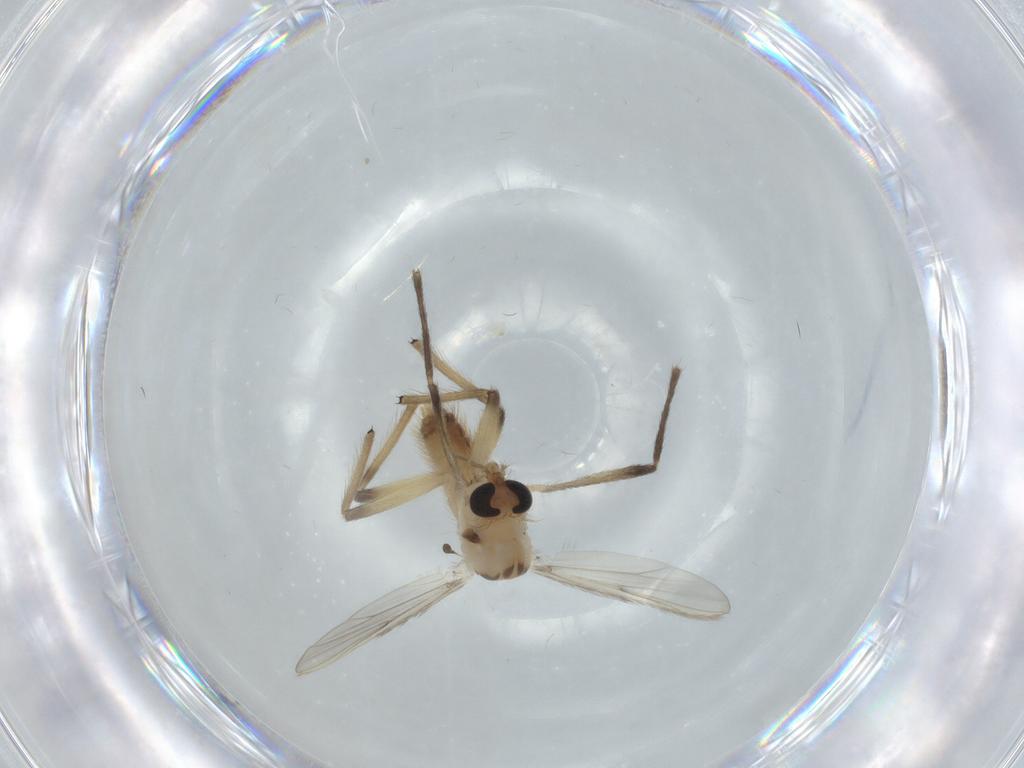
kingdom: Animalia
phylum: Arthropoda
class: Insecta
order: Diptera
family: Chironomidae
